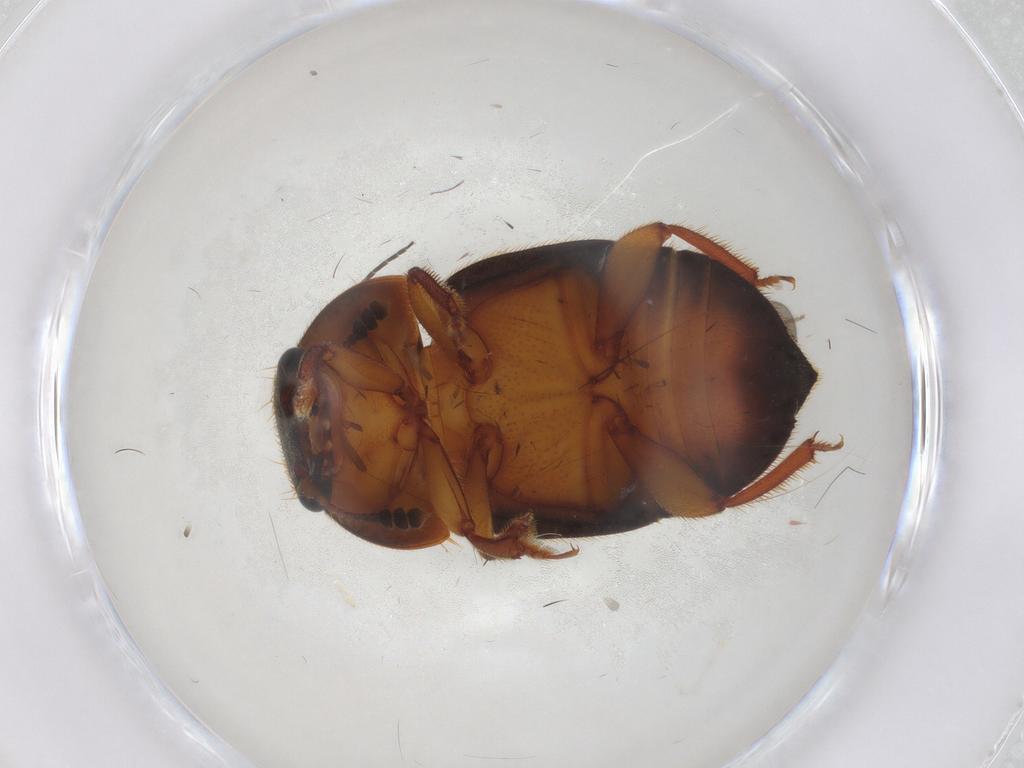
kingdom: Animalia
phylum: Arthropoda
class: Insecta
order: Coleoptera
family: Nitidulidae
